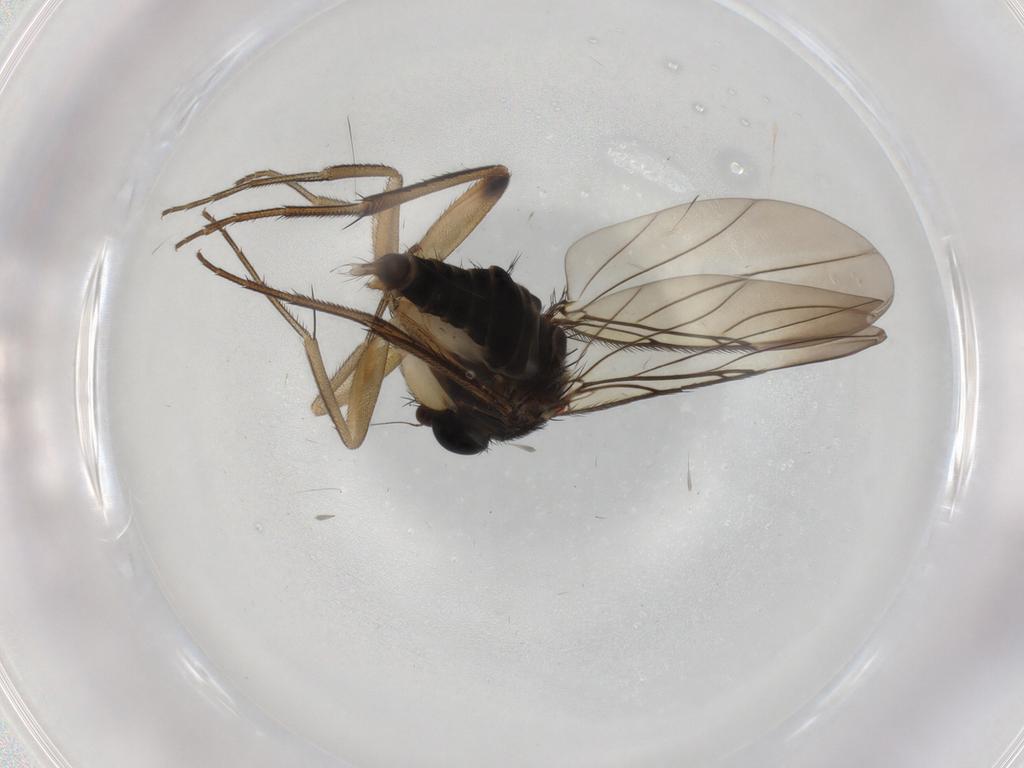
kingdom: Animalia
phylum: Arthropoda
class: Insecta
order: Diptera
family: Phoridae
